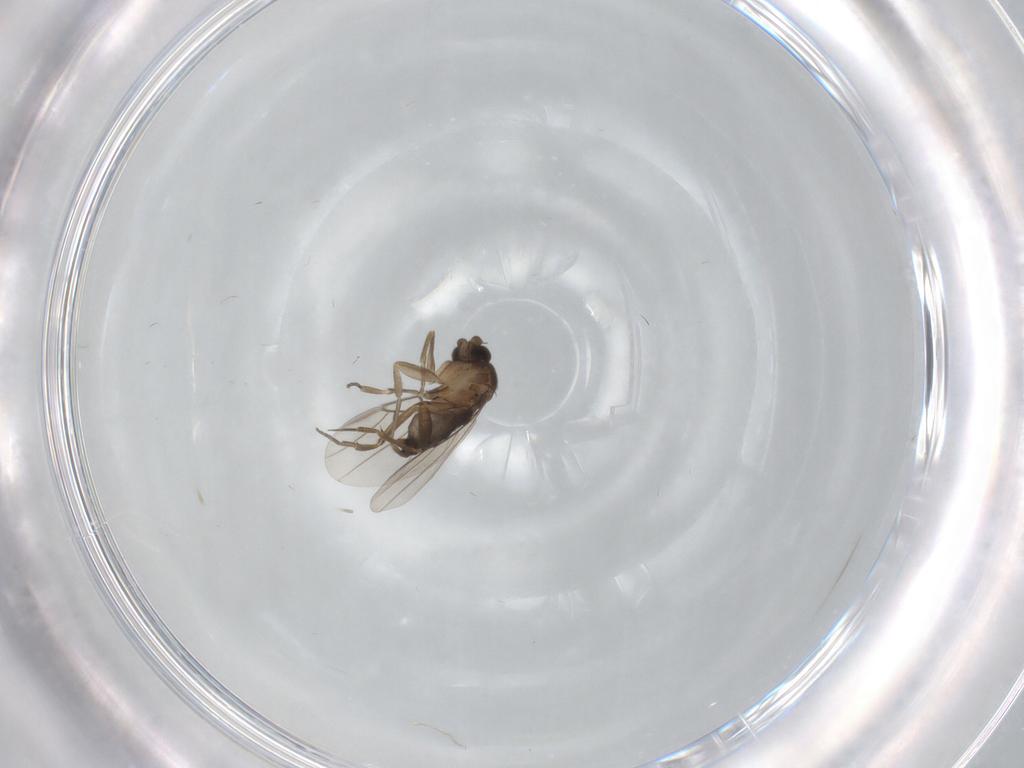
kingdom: Animalia
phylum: Arthropoda
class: Insecta
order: Diptera
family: Phoridae
